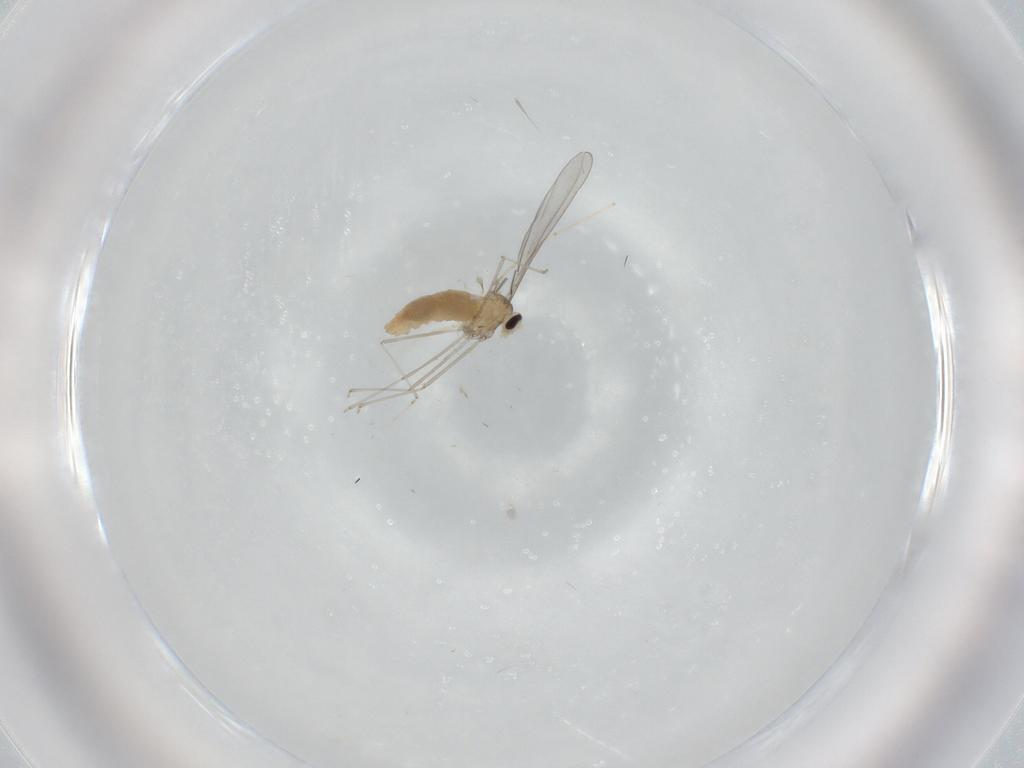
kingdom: Animalia
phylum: Arthropoda
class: Insecta
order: Diptera
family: Cecidomyiidae
